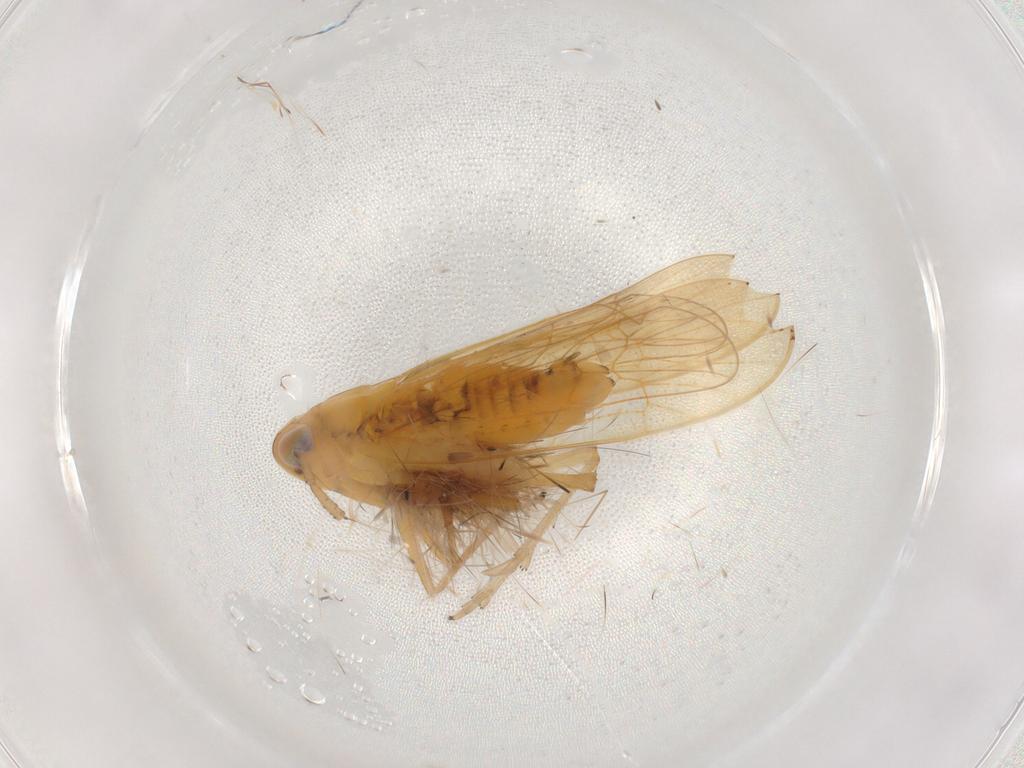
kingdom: Animalia
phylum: Arthropoda
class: Insecta
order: Hemiptera
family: Delphacidae
